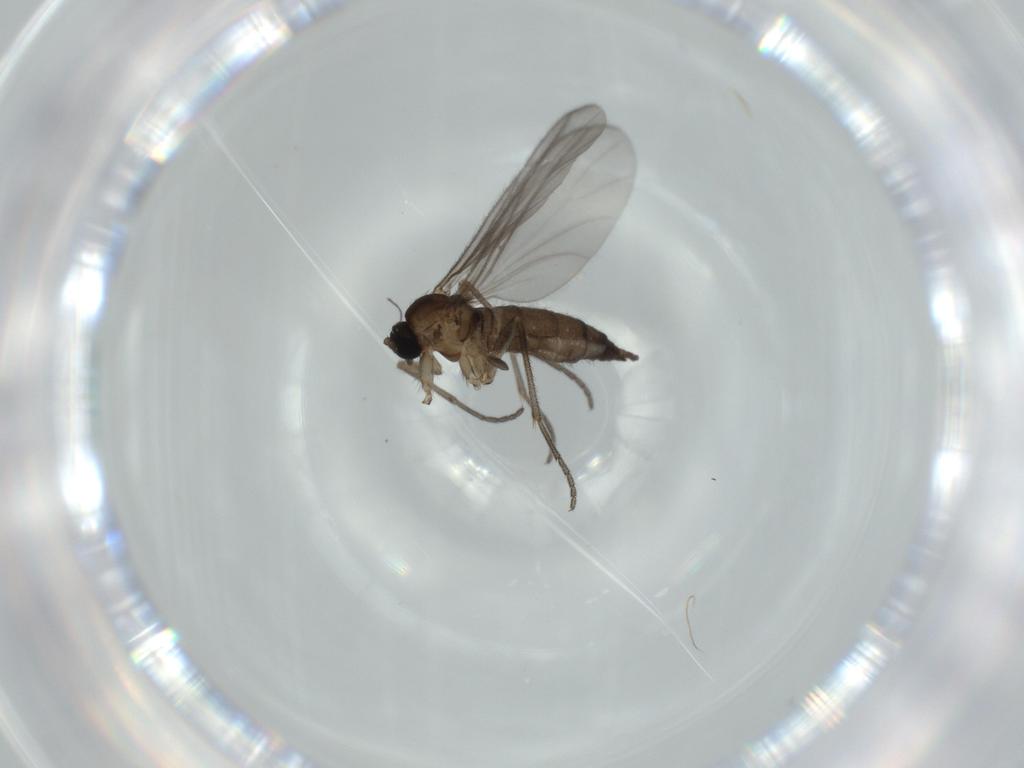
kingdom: Animalia
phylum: Arthropoda
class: Insecta
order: Diptera
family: Sciaridae
